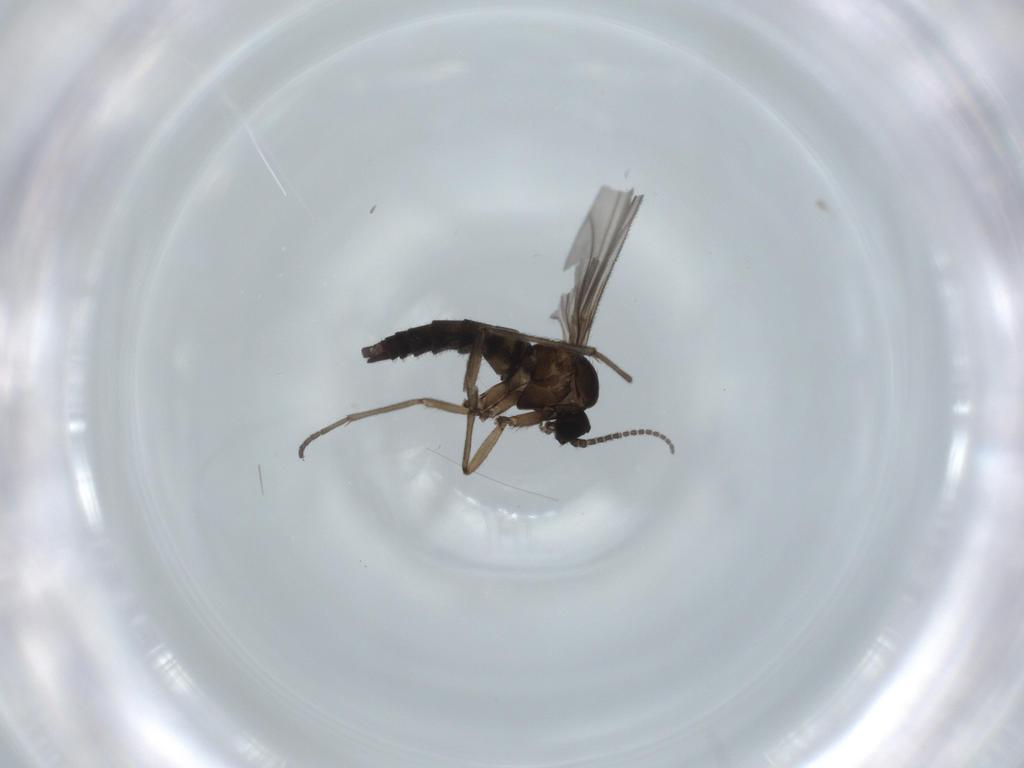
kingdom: Animalia
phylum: Arthropoda
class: Insecta
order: Diptera
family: Sciaridae
